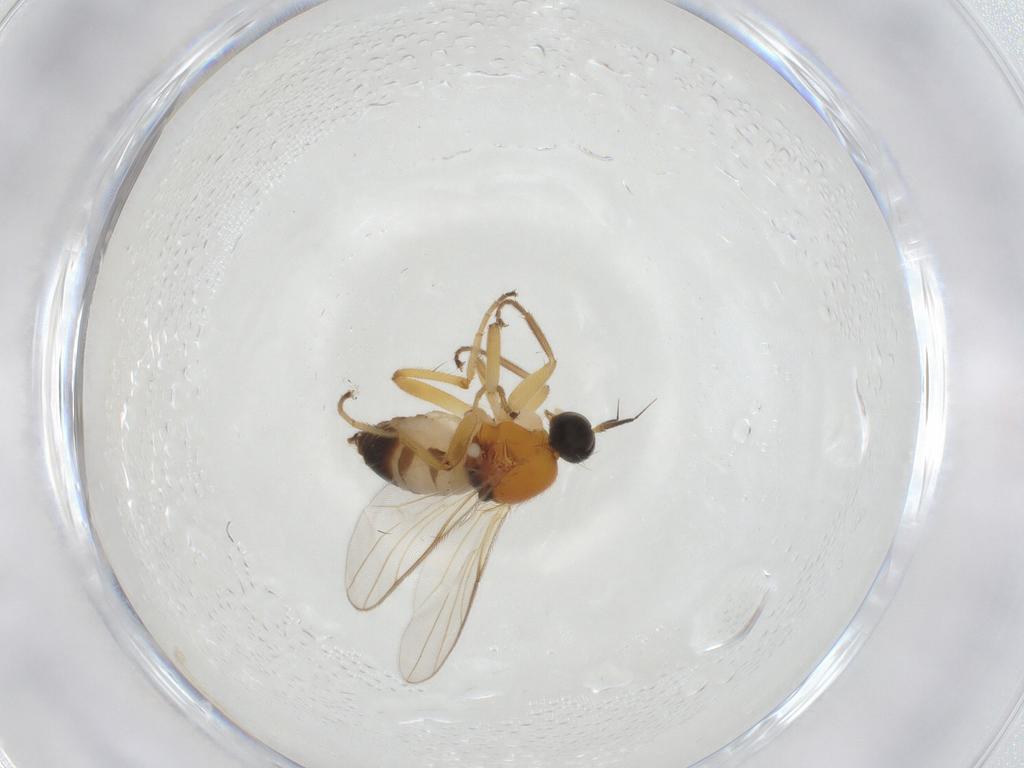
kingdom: Animalia
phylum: Arthropoda
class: Insecta
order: Diptera
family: Hybotidae
